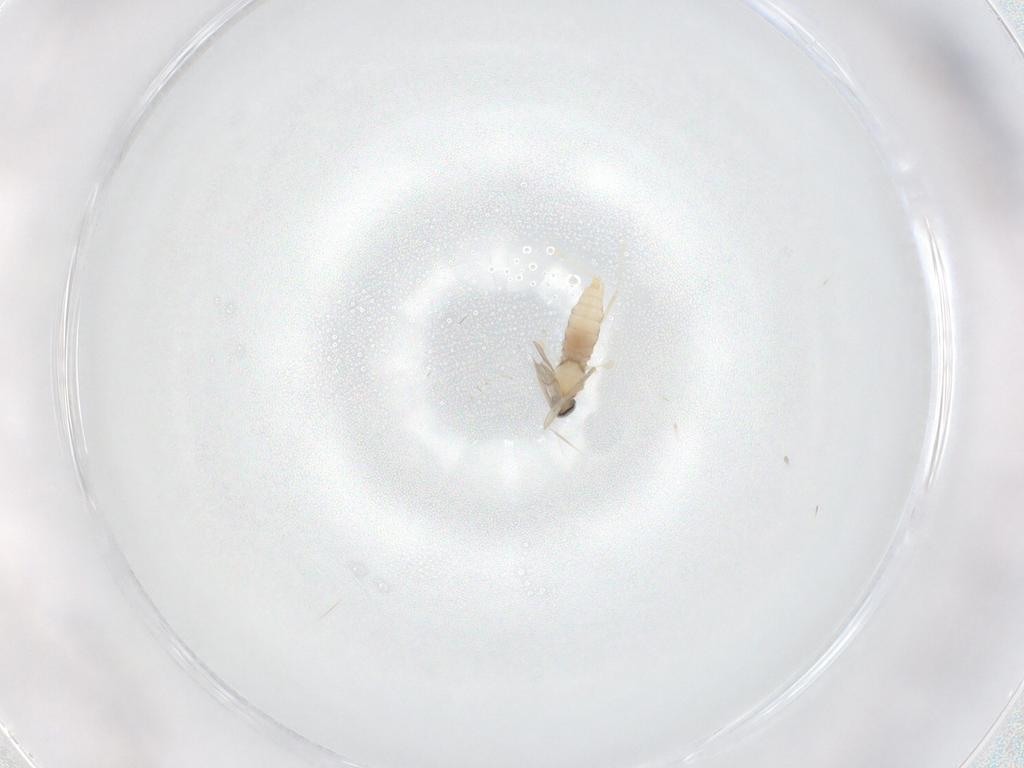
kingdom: Animalia
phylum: Arthropoda
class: Insecta
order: Diptera
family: Cecidomyiidae
